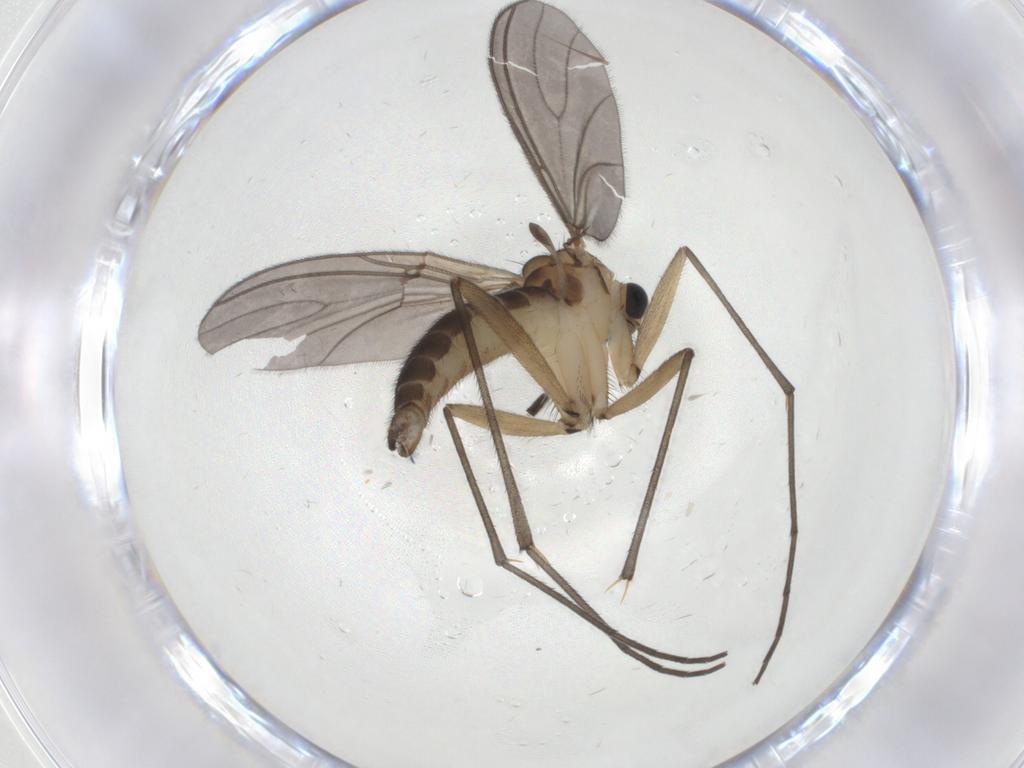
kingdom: Animalia
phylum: Arthropoda
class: Insecta
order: Diptera
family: Sciaridae
